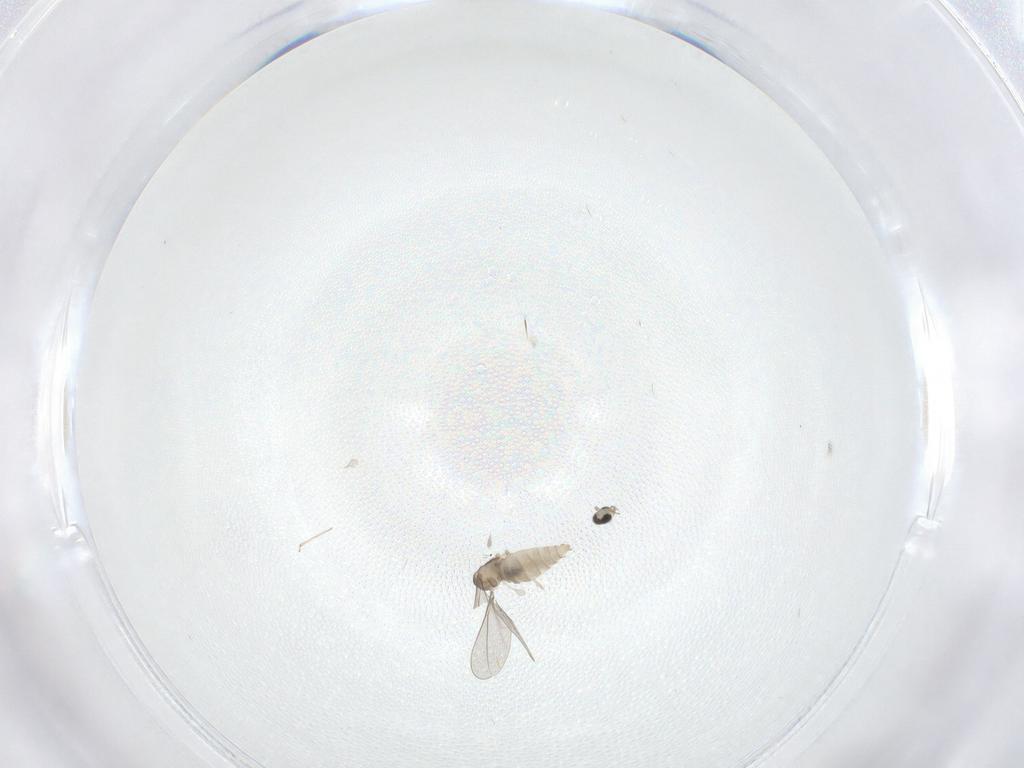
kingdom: Animalia
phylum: Arthropoda
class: Insecta
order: Diptera
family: Cecidomyiidae
